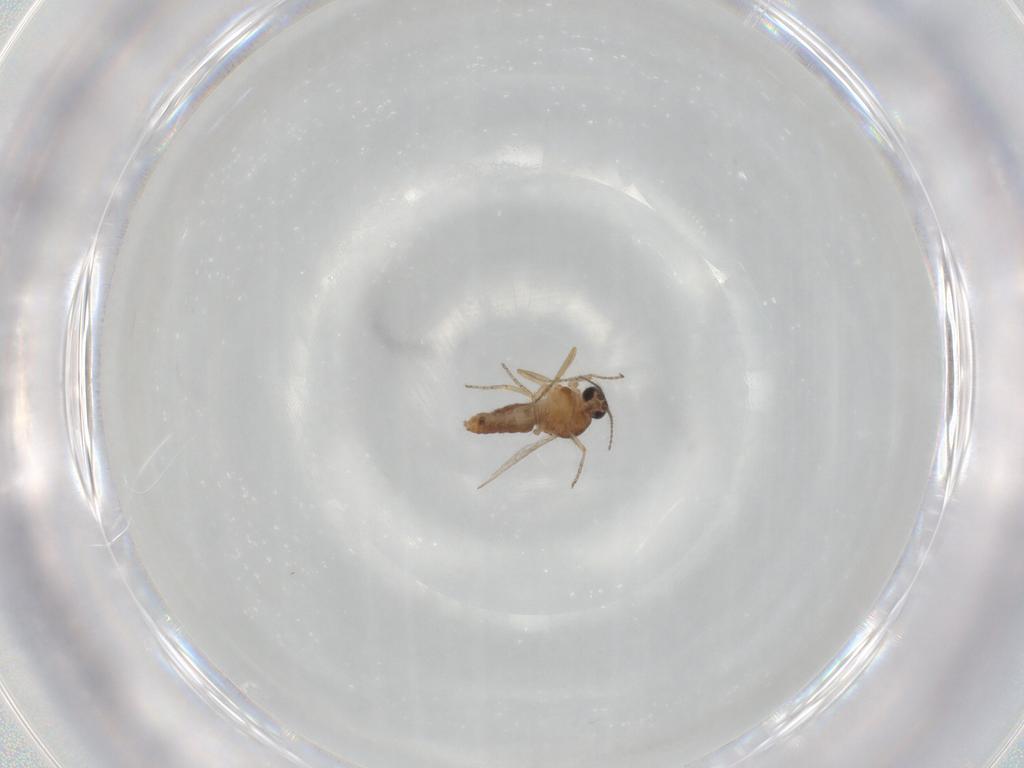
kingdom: Animalia
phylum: Arthropoda
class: Insecta
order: Diptera
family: Ceratopogonidae
